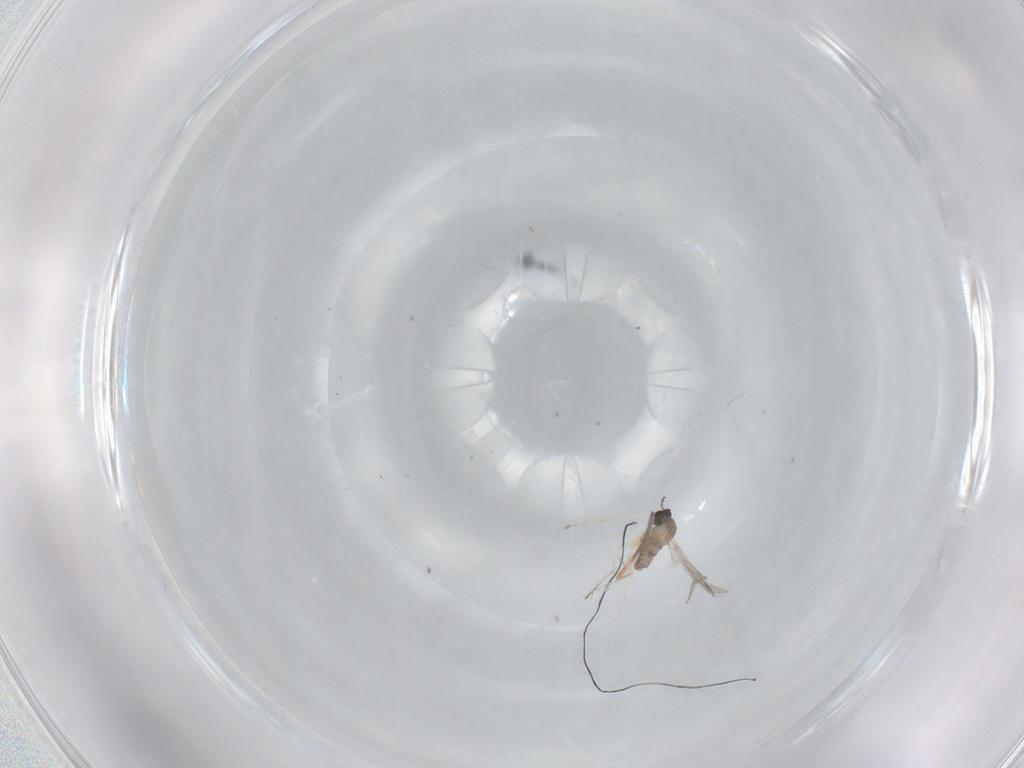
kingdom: Animalia
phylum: Arthropoda
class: Insecta
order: Diptera
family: Cecidomyiidae
